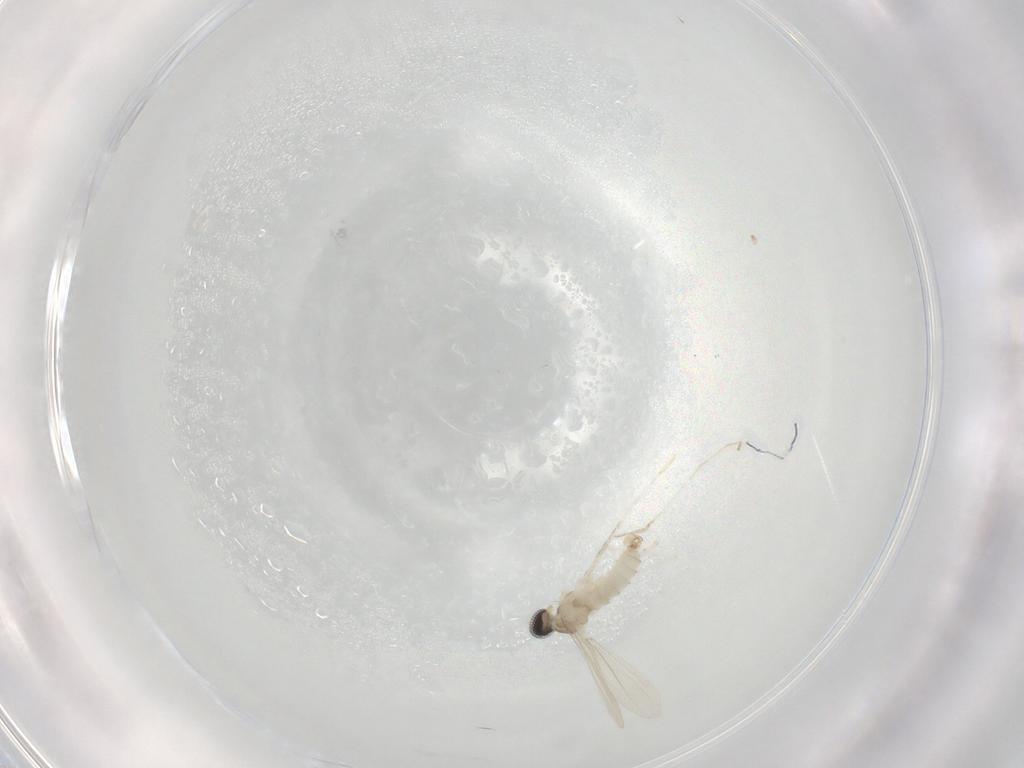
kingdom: Animalia
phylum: Arthropoda
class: Insecta
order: Diptera
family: Cecidomyiidae
